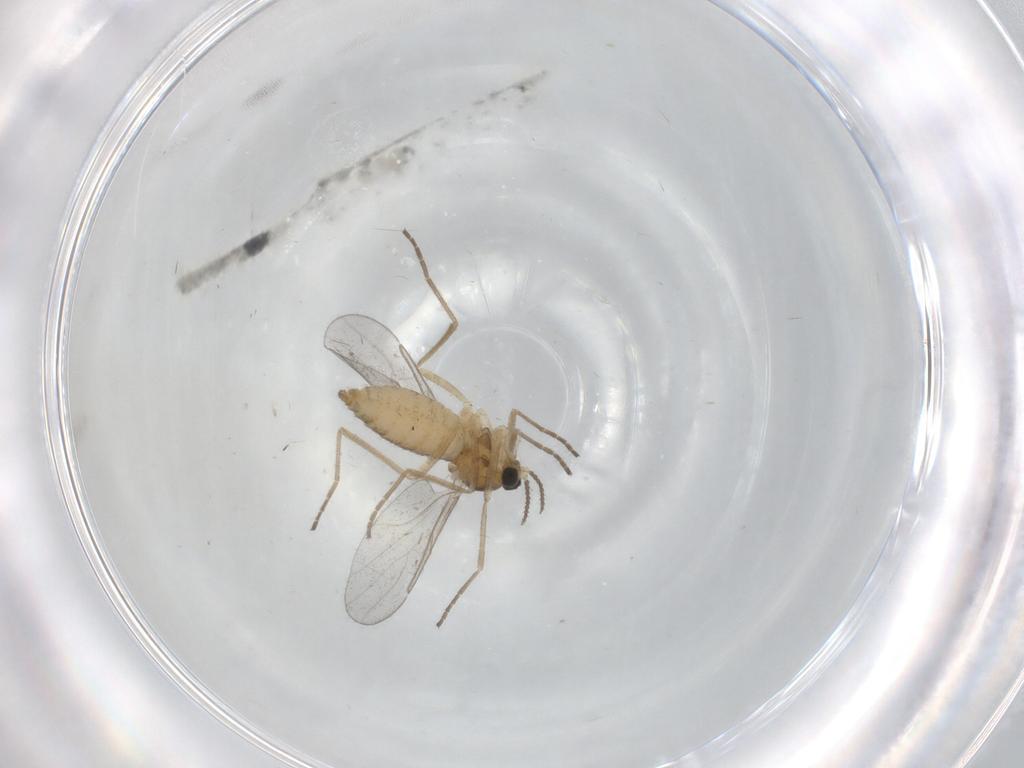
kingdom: Animalia
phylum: Arthropoda
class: Insecta
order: Diptera
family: Cecidomyiidae
